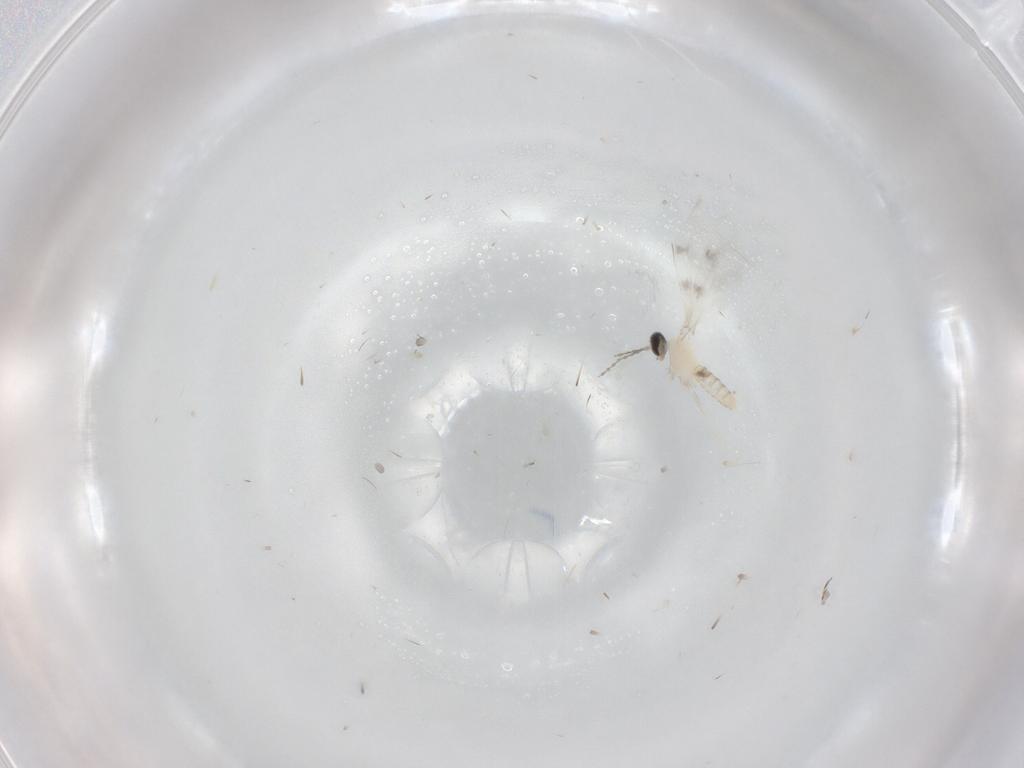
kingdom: Animalia
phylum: Arthropoda
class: Insecta
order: Diptera
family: Cecidomyiidae
